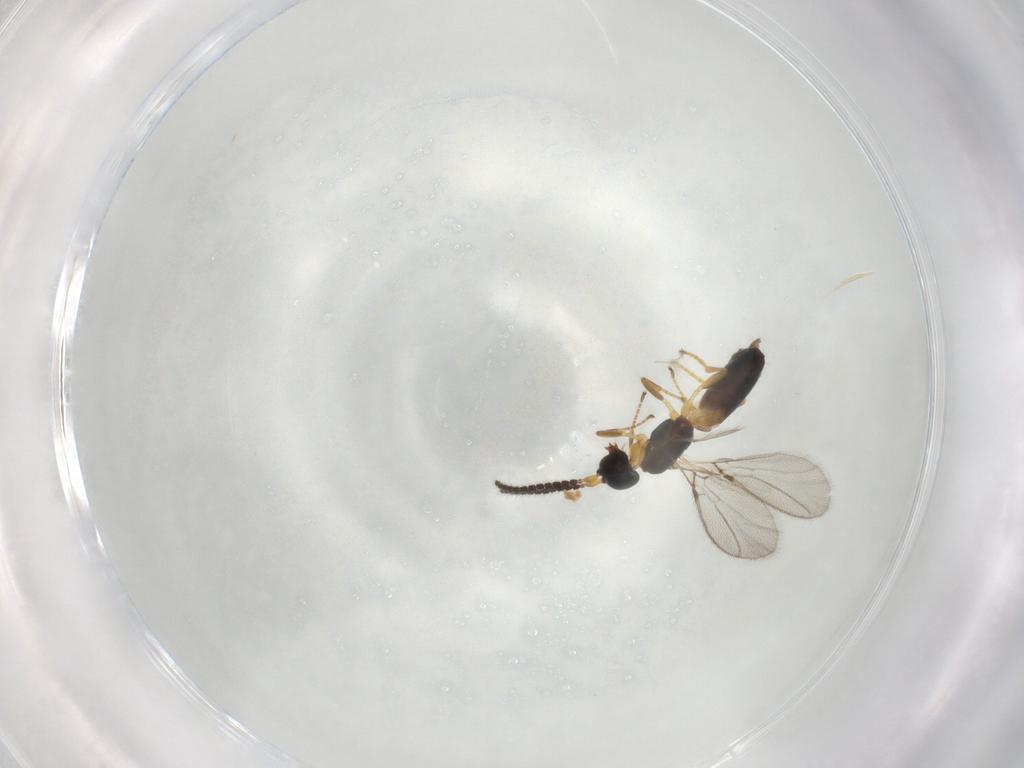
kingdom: Animalia
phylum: Arthropoda
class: Insecta
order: Hymenoptera
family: Braconidae
